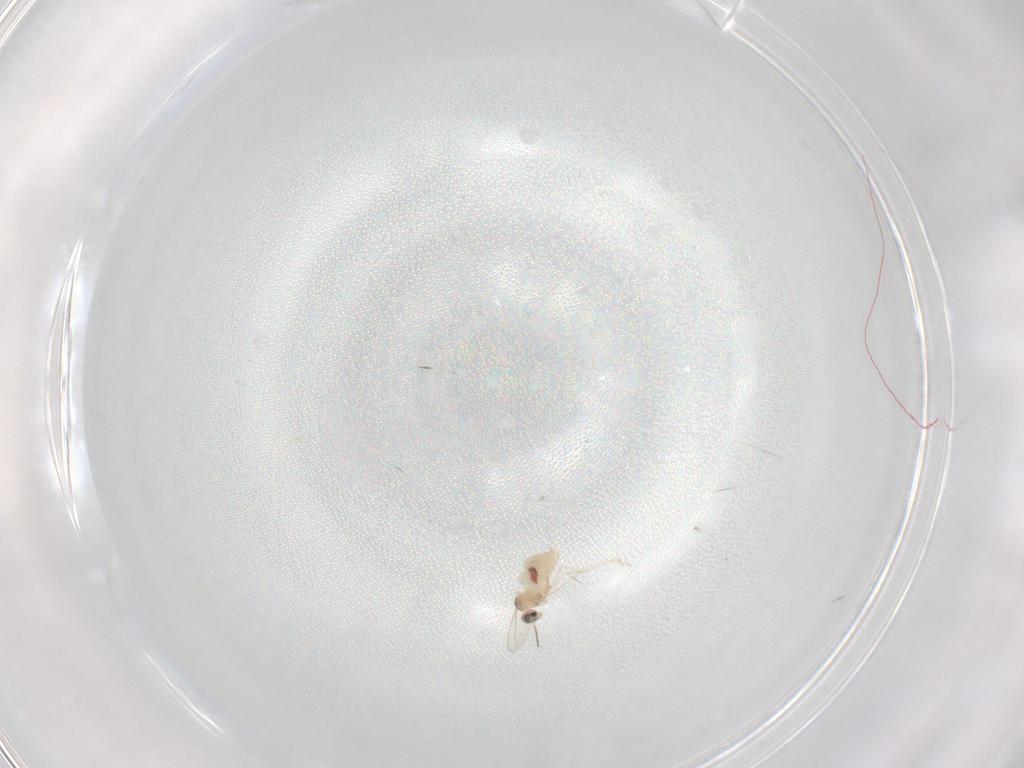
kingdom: Animalia
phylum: Arthropoda
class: Insecta
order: Diptera
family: Cecidomyiidae
